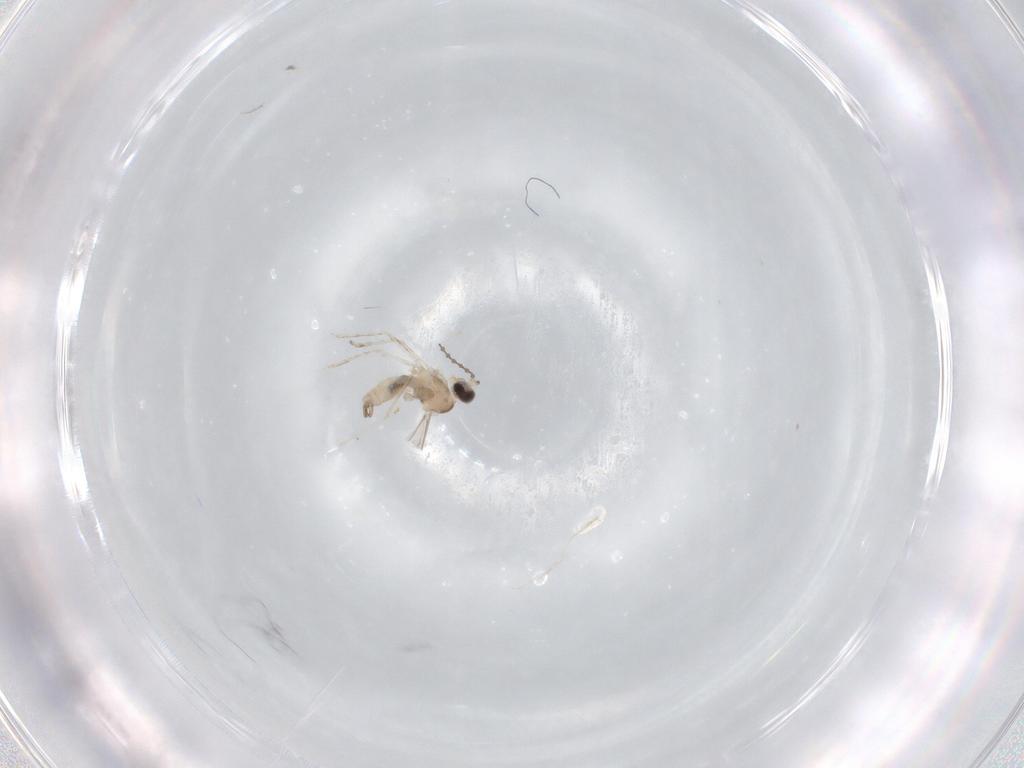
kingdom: Animalia
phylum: Arthropoda
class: Insecta
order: Diptera
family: Cecidomyiidae
